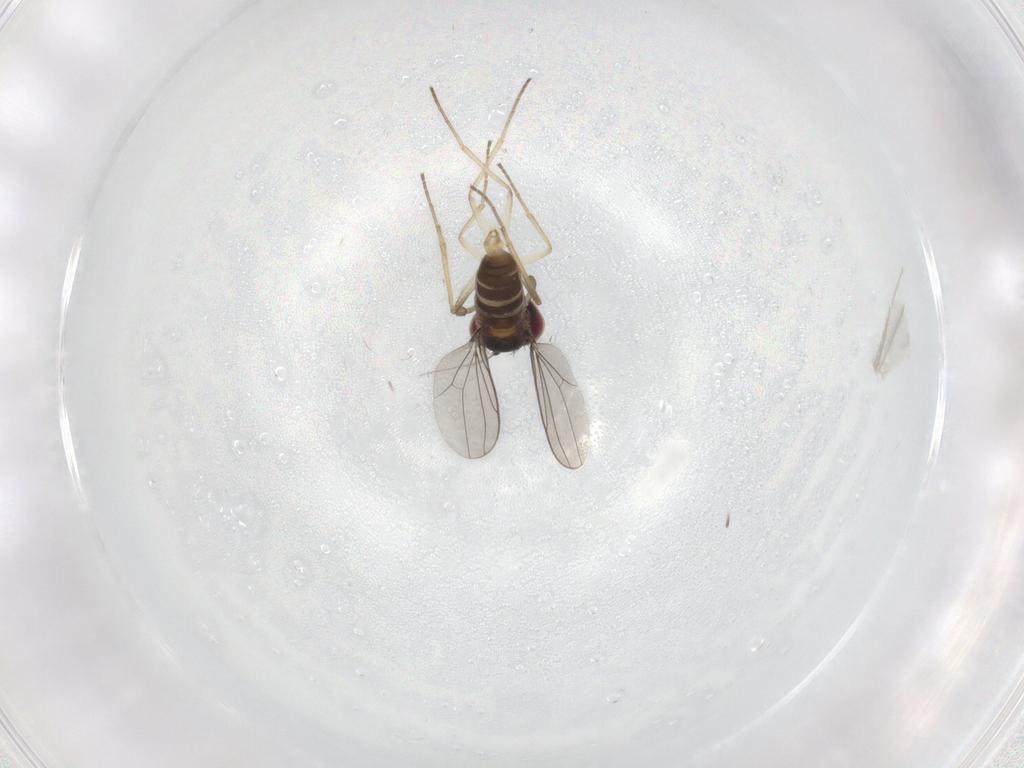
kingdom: Animalia
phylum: Arthropoda
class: Insecta
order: Diptera
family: Dolichopodidae
